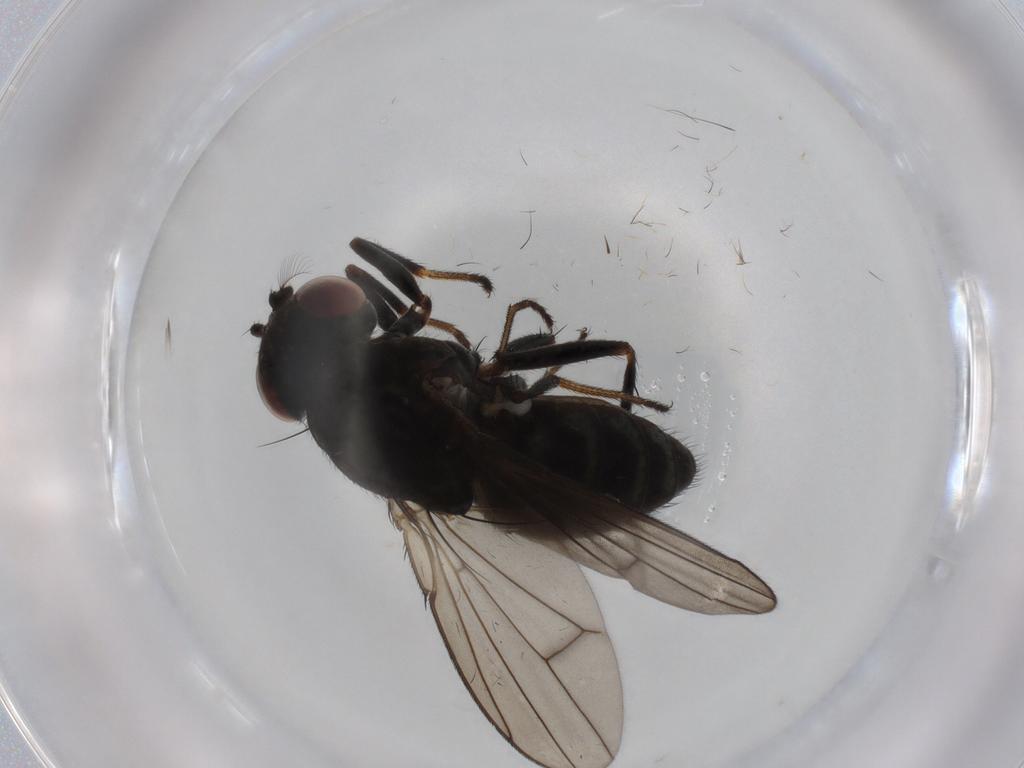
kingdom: Animalia
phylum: Arthropoda
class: Insecta
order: Diptera
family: Ephydridae
